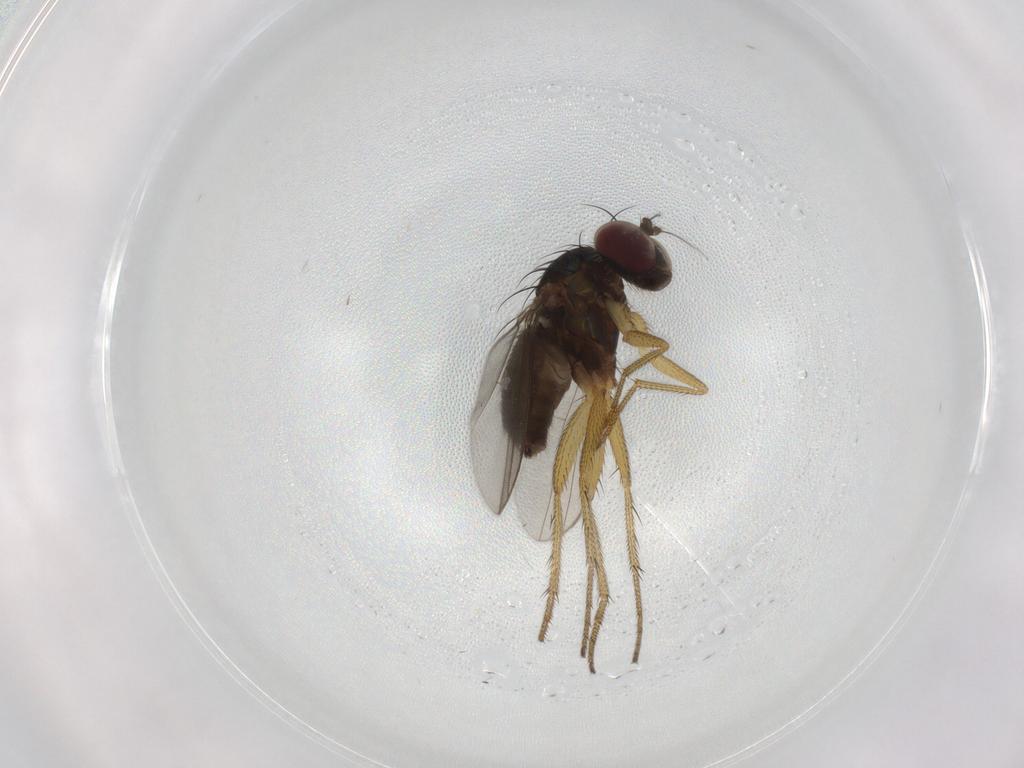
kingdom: Animalia
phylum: Arthropoda
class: Insecta
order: Diptera
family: Dolichopodidae
